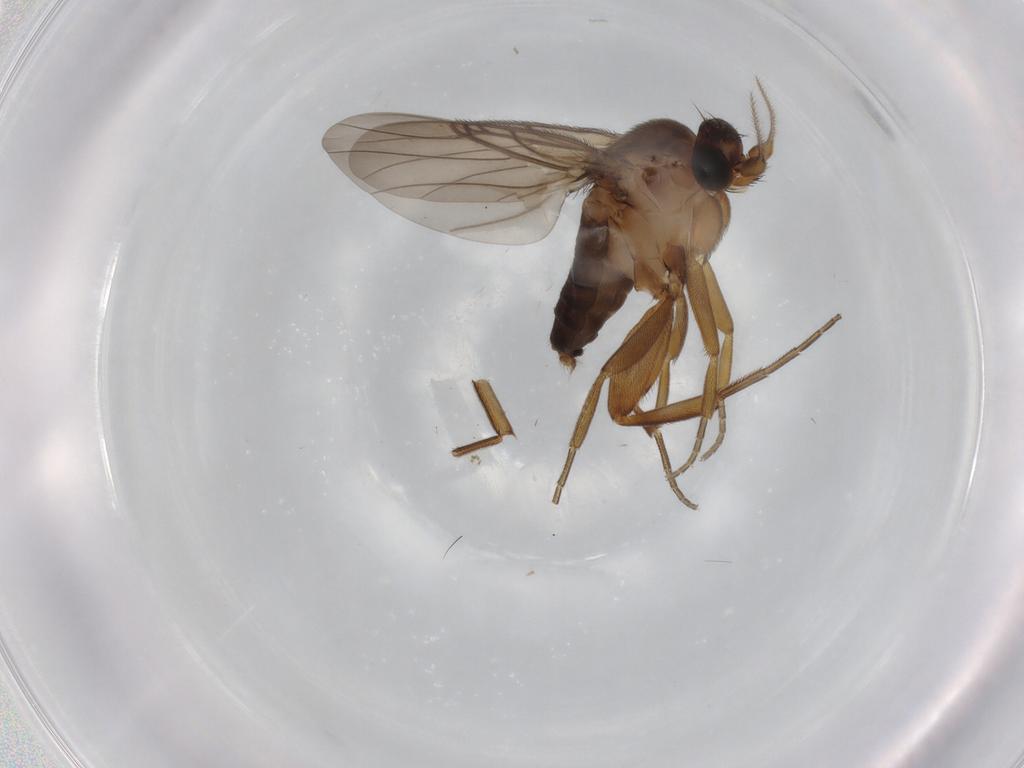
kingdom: Animalia
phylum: Arthropoda
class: Insecta
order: Diptera
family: Phoridae
